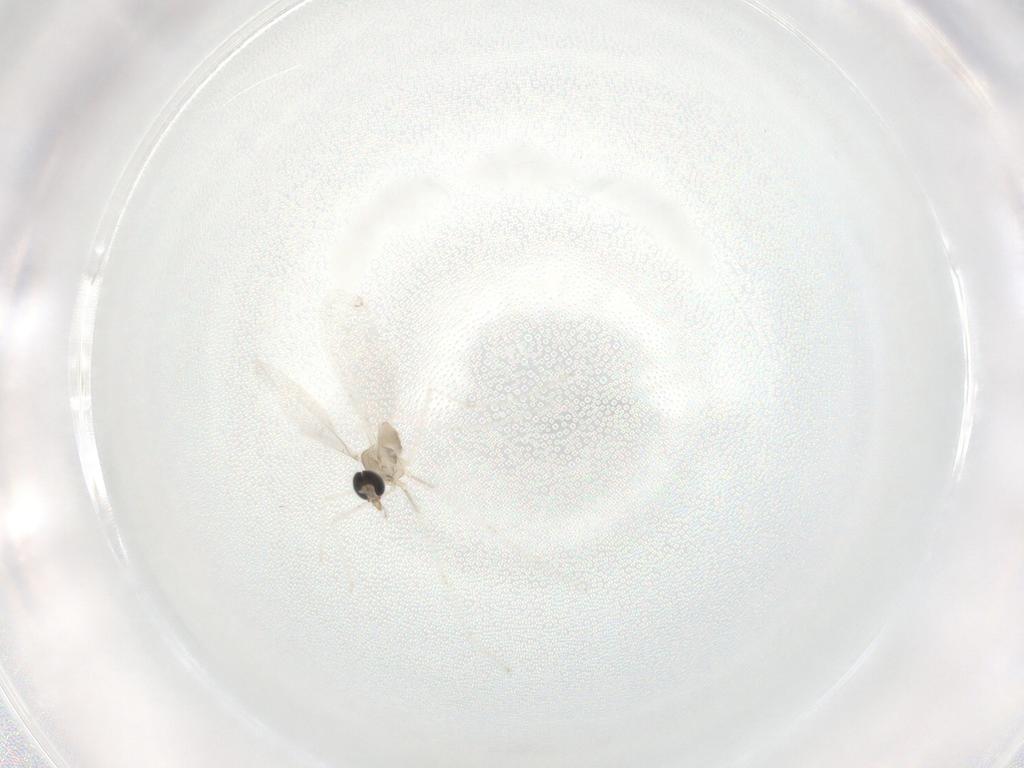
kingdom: Animalia
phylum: Arthropoda
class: Insecta
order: Diptera
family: Cecidomyiidae
